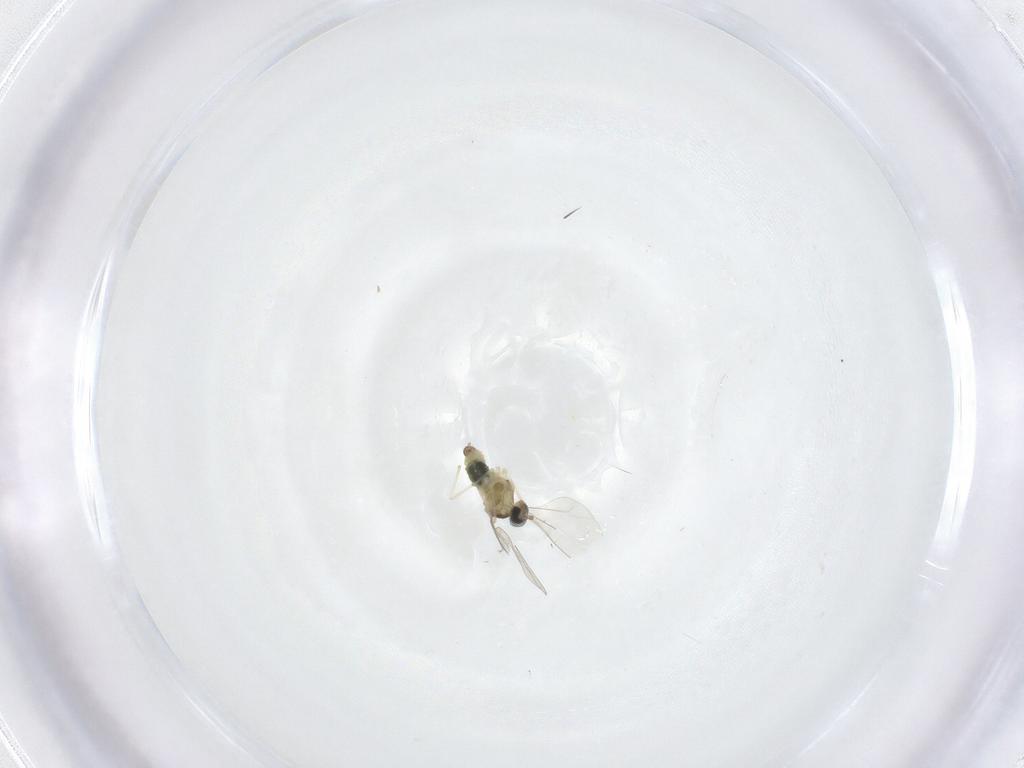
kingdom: Animalia
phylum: Arthropoda
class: Insecta
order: Diptera
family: Cecidomyiidae
